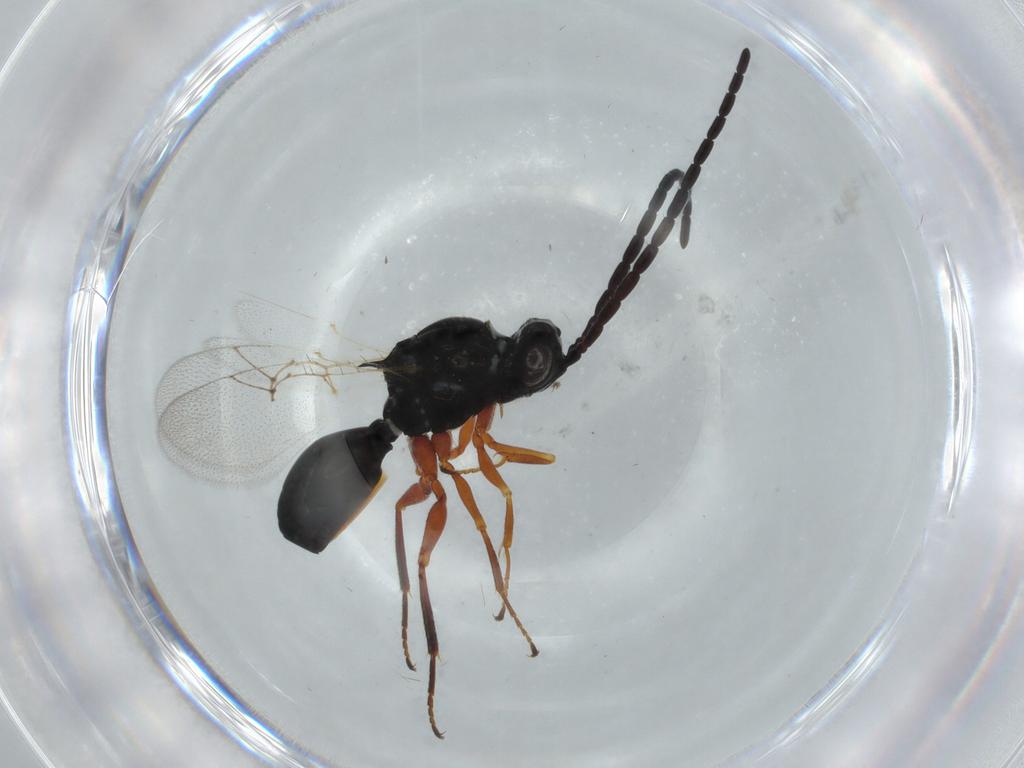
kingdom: Animalia
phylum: Arthropoda
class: Insecta
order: Hymenoptera
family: Figitidae
